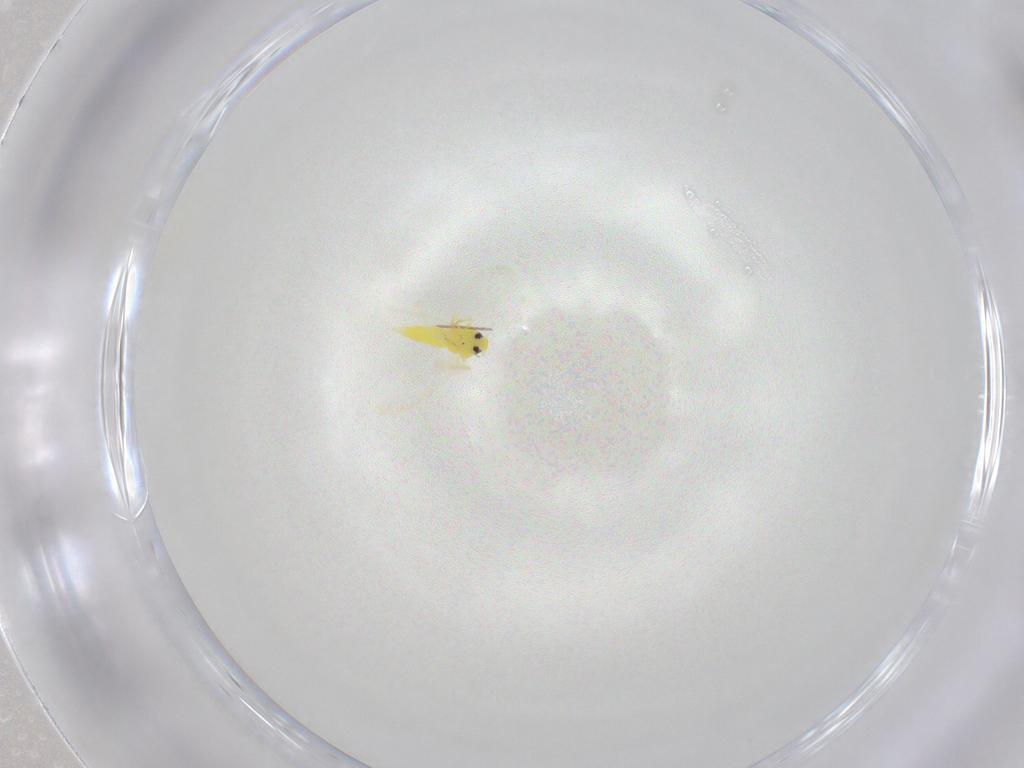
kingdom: Animalia
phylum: Arthropoda
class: Insecta
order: Hemiptera
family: Aleyrodidae
